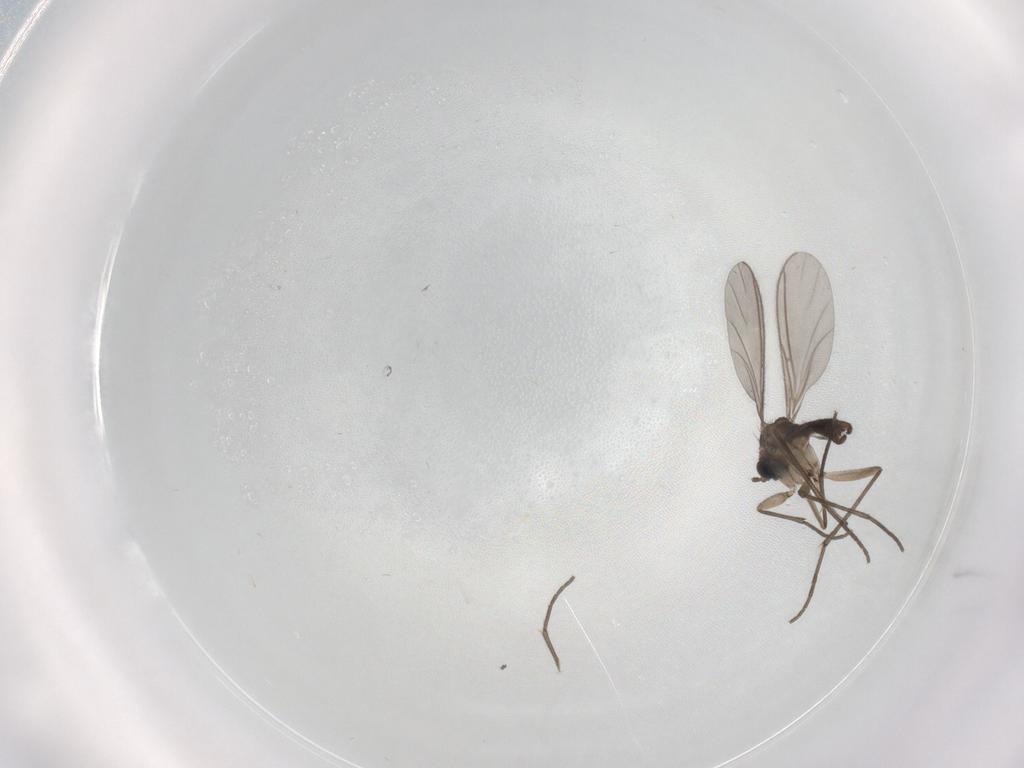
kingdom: Animalia
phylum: Arthropoda
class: Insecta
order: Diptera
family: Sciaridae
